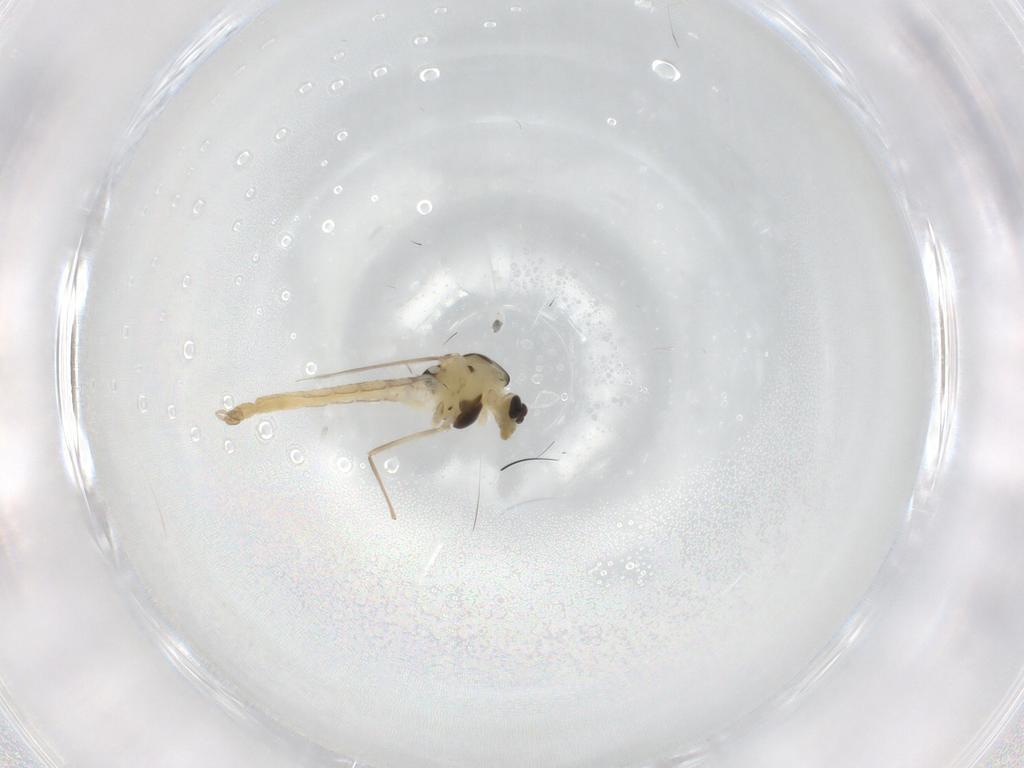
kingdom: Animalia
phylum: Arthropoda
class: Insecta
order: Diptera
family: Chironomidae
